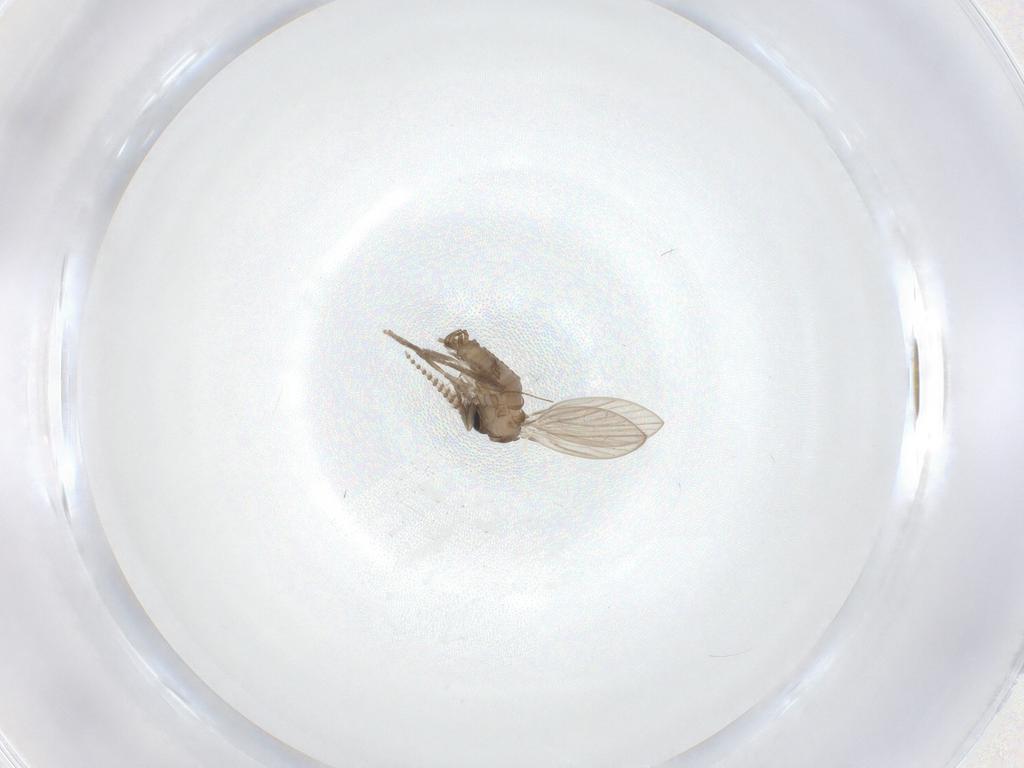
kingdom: Animalia
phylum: Arthropoda
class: Insecta
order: Diptera
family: Psychodidae
